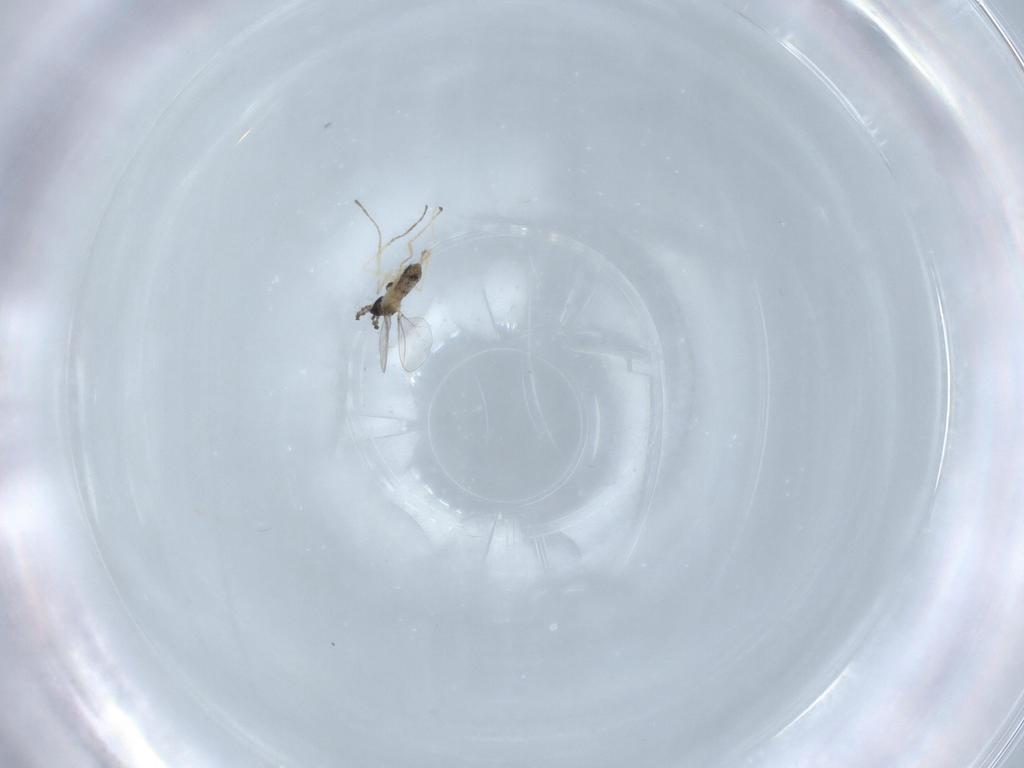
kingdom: Animalia
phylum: Arthropoda
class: Insecta
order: Diptera
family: Cecidomyiidae
